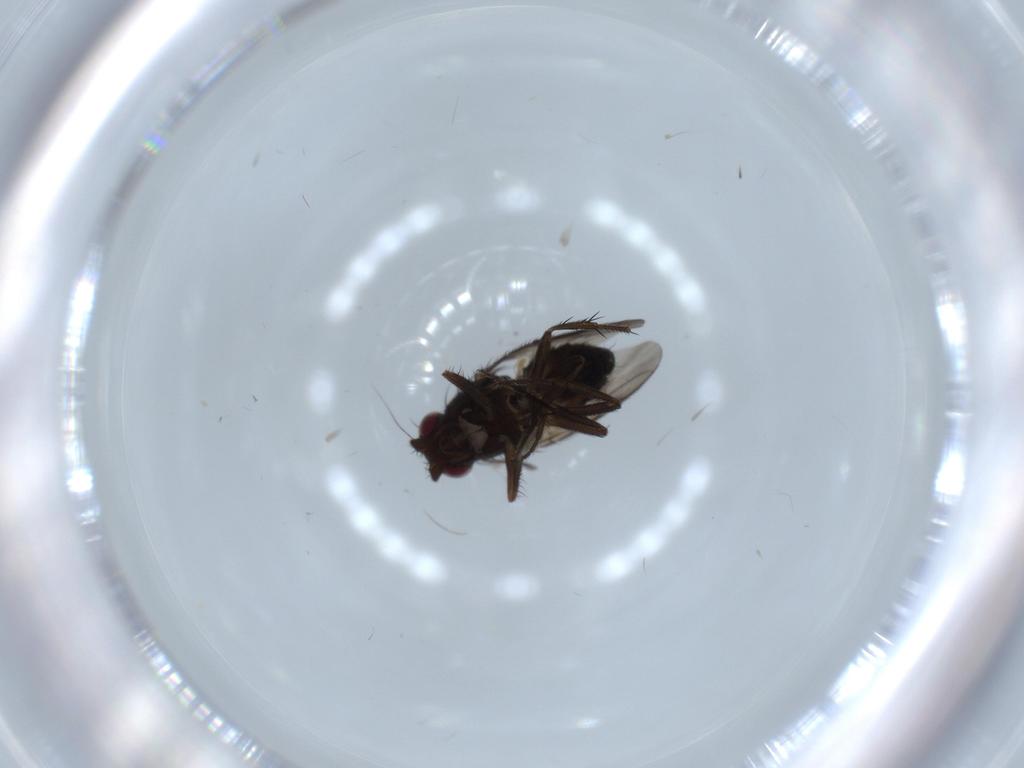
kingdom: Animalia
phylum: Arthropoda
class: Insecta
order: Diptera
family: Sphaeroceridae
